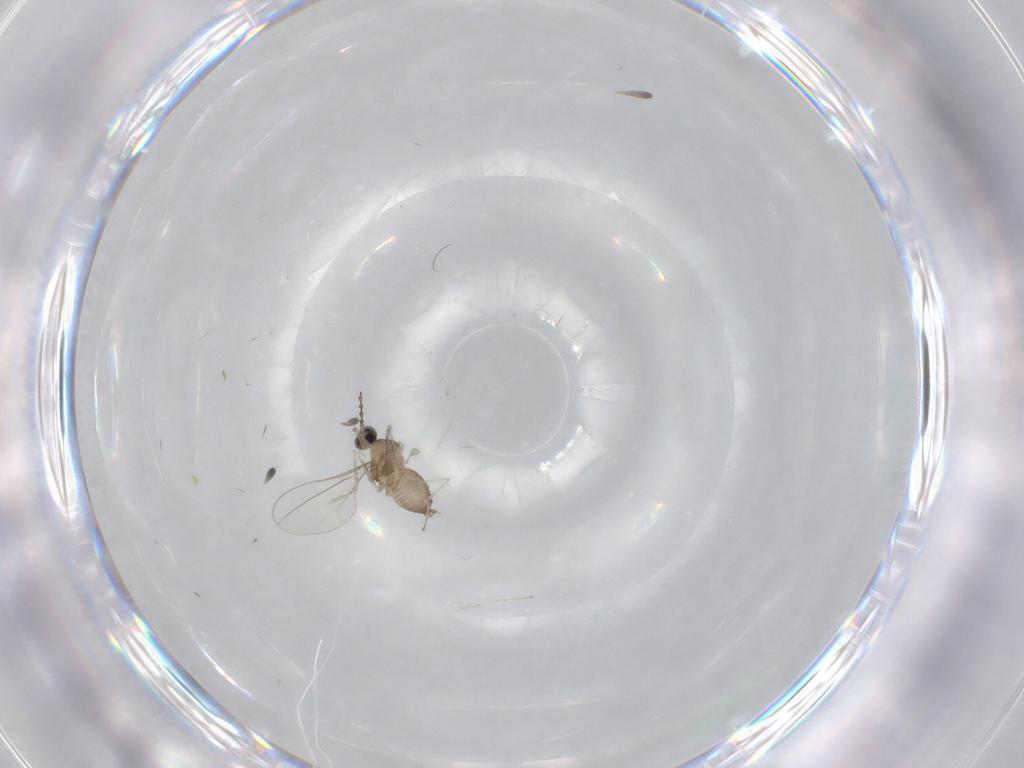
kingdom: Animalia
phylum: Arthropoda
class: Insecta
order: Diptera
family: Cecidomyiidae
